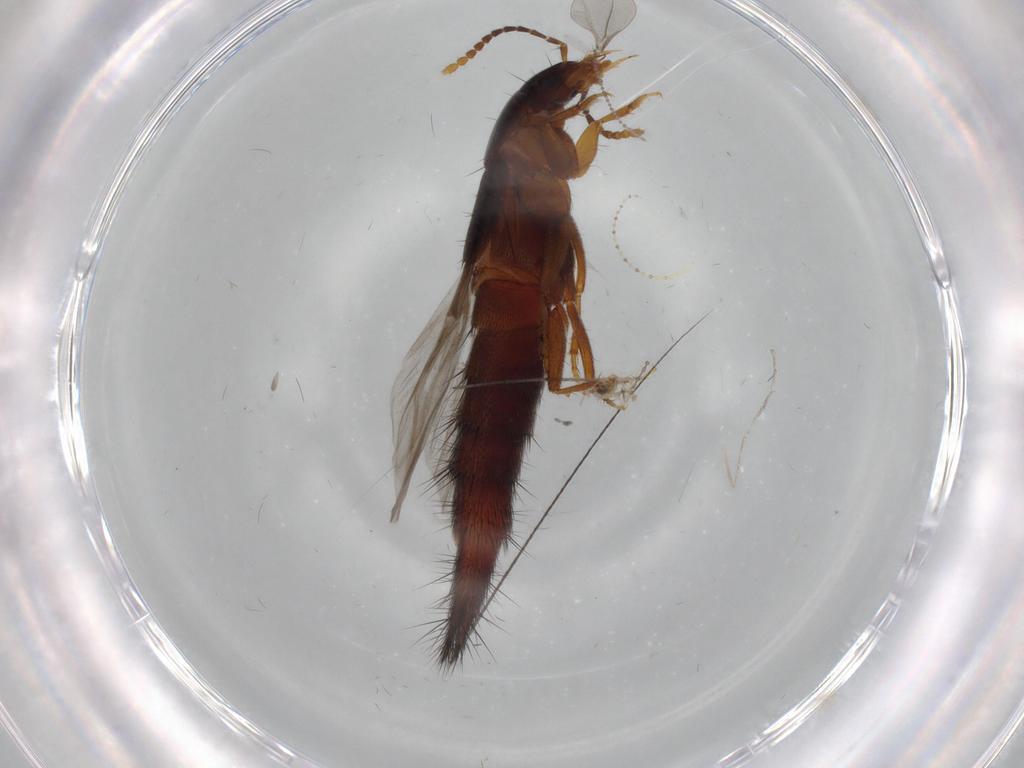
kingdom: Animalia
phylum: Arthropoda
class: Insecta
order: Coleoptera
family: Staphylinidae
